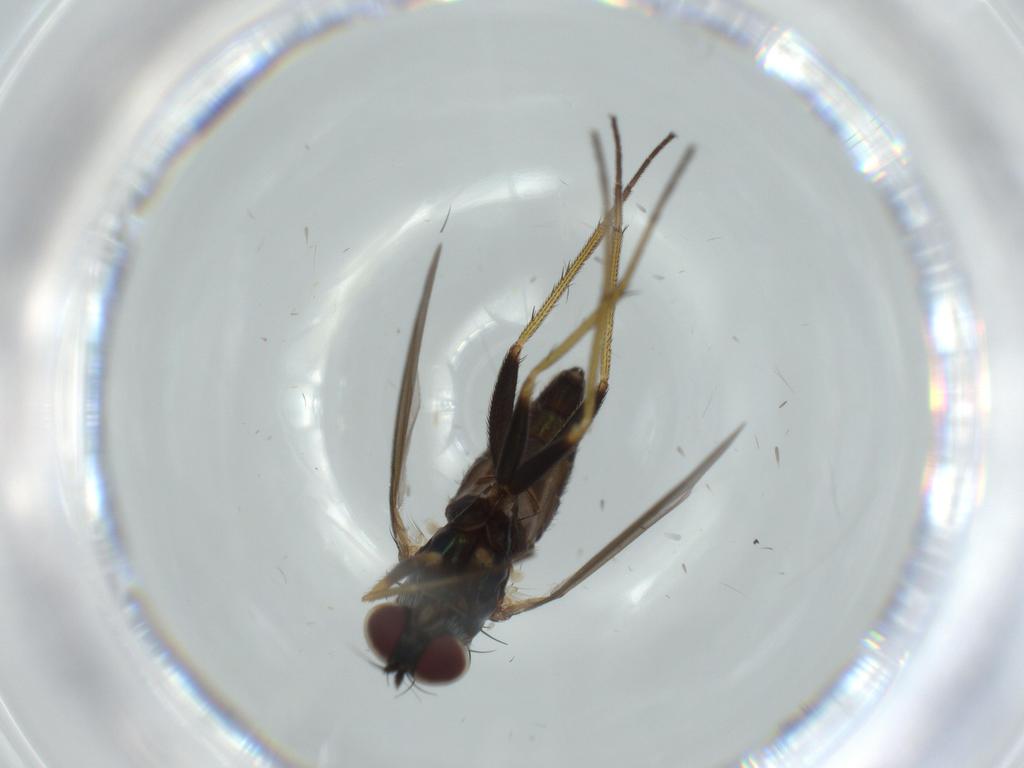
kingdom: Animalia
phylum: Arthropoda
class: Insecta
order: Diptera
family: Dolichopodidae
